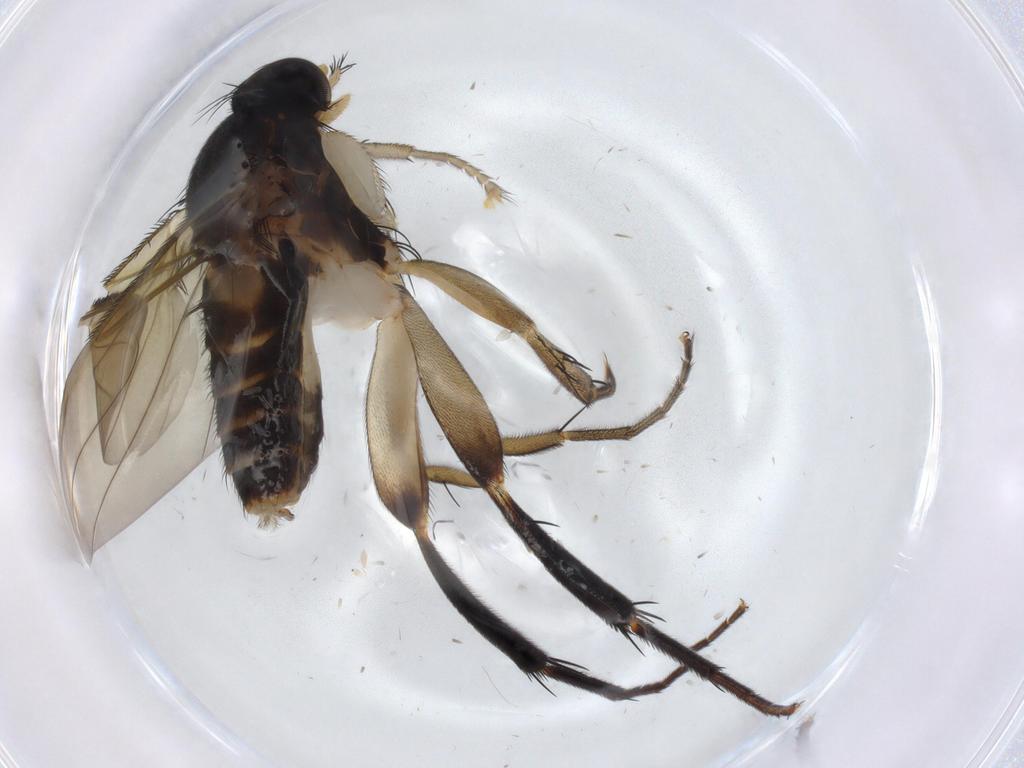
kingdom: Animalia
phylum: Arthropoda
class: Insecta
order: Diptera
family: Phoridae
